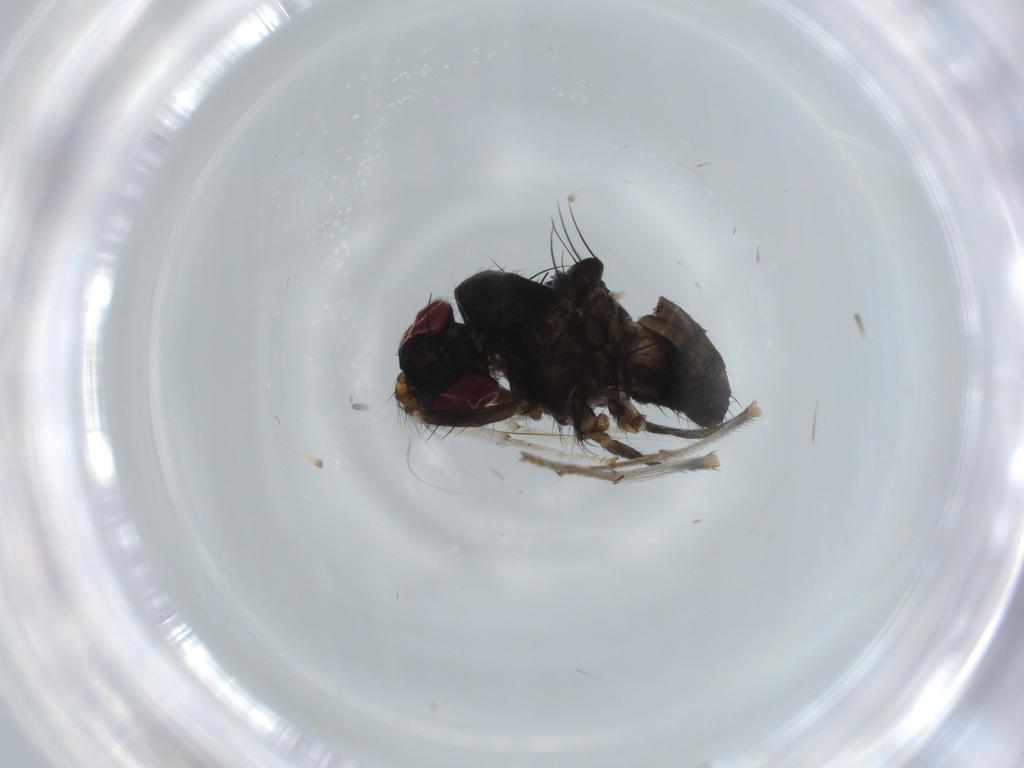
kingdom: Animalia
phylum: Arthropoda
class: Insecta
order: Diptera
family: Lauxaniidae
